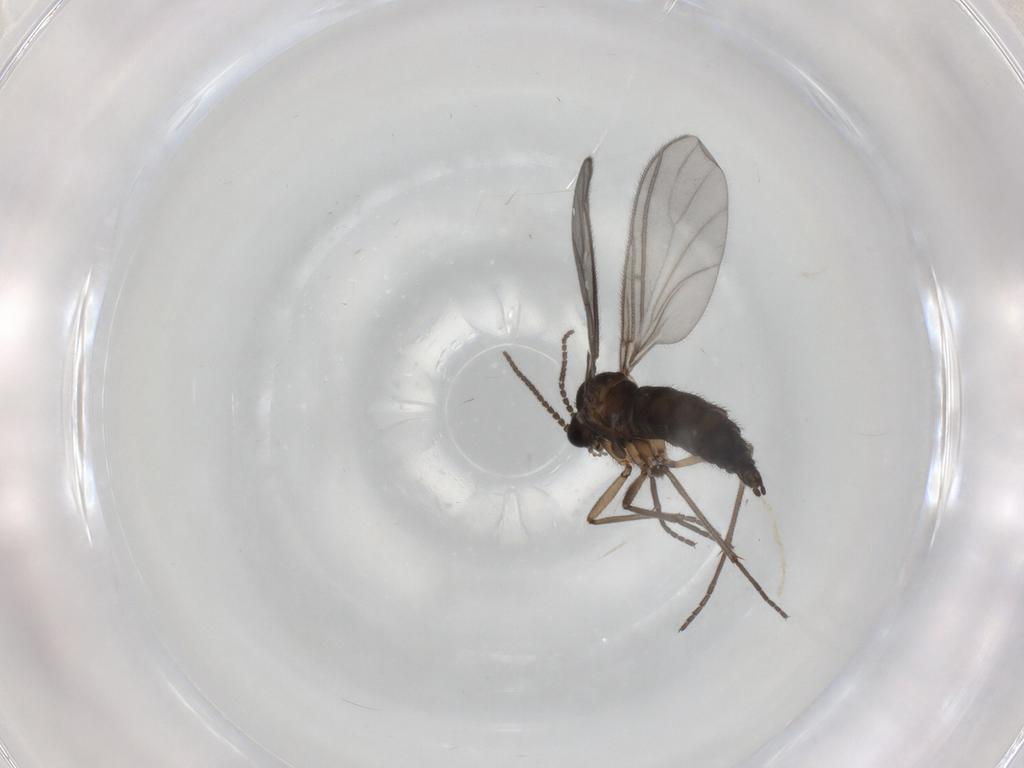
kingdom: Animalia
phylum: Arthropoda
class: Insecta
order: Diptera
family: Sciaridae
